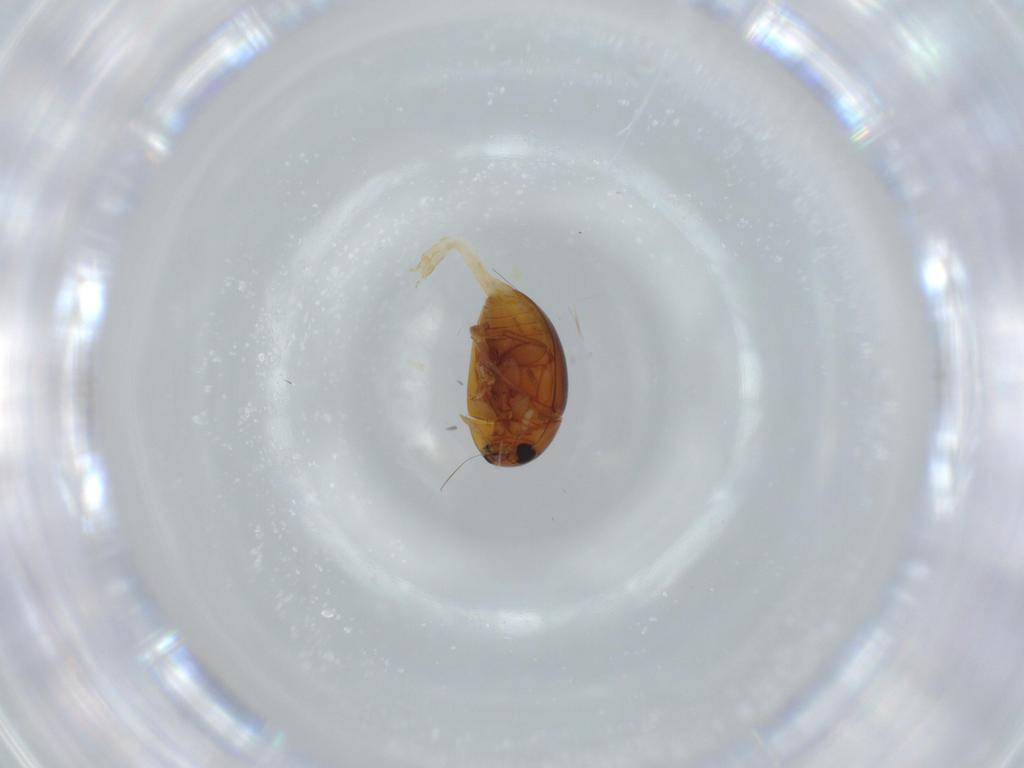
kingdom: Animalia
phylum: Arthropoda
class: Insecta
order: Coleoptera
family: Phalacridae
